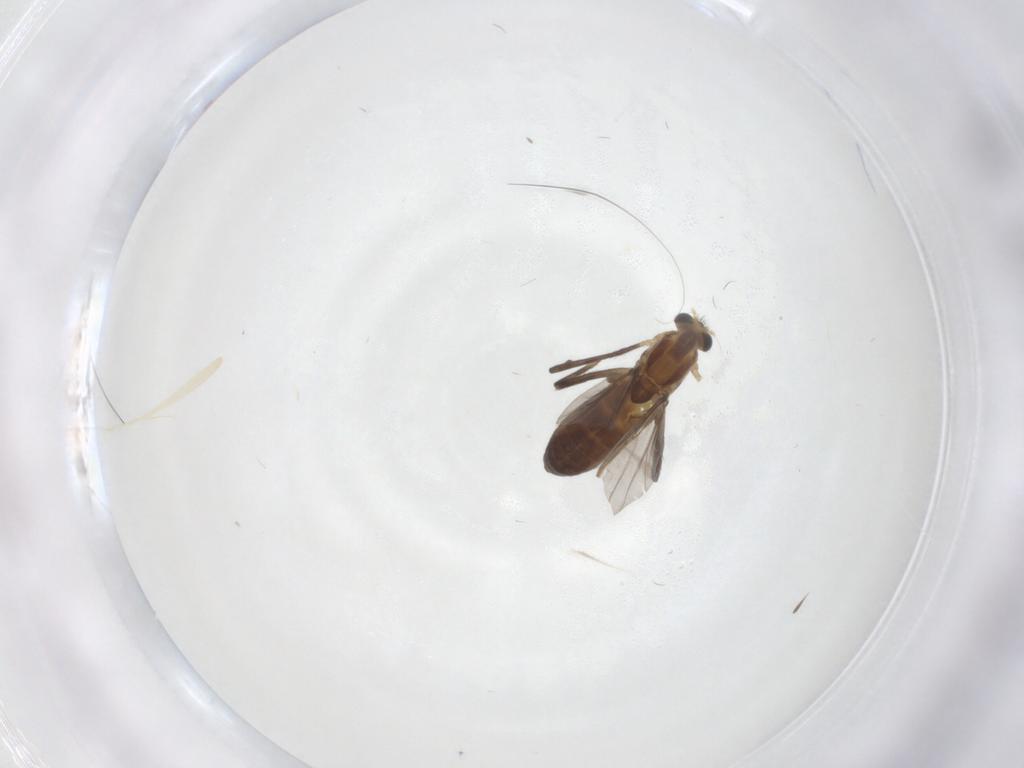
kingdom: Animalia
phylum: Arthropoda
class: Insecta
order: Diptera
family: Chironomidae
